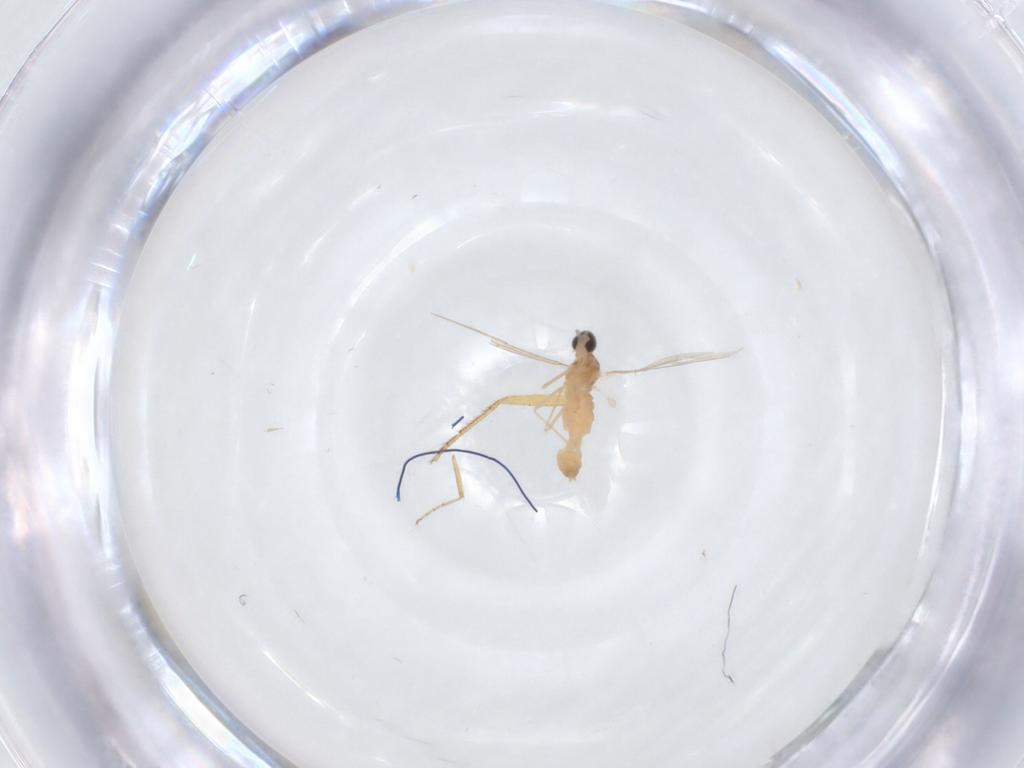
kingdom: Animalia
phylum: Arthropoda
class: Insecta
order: Diptera
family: Ceratopogonidae
